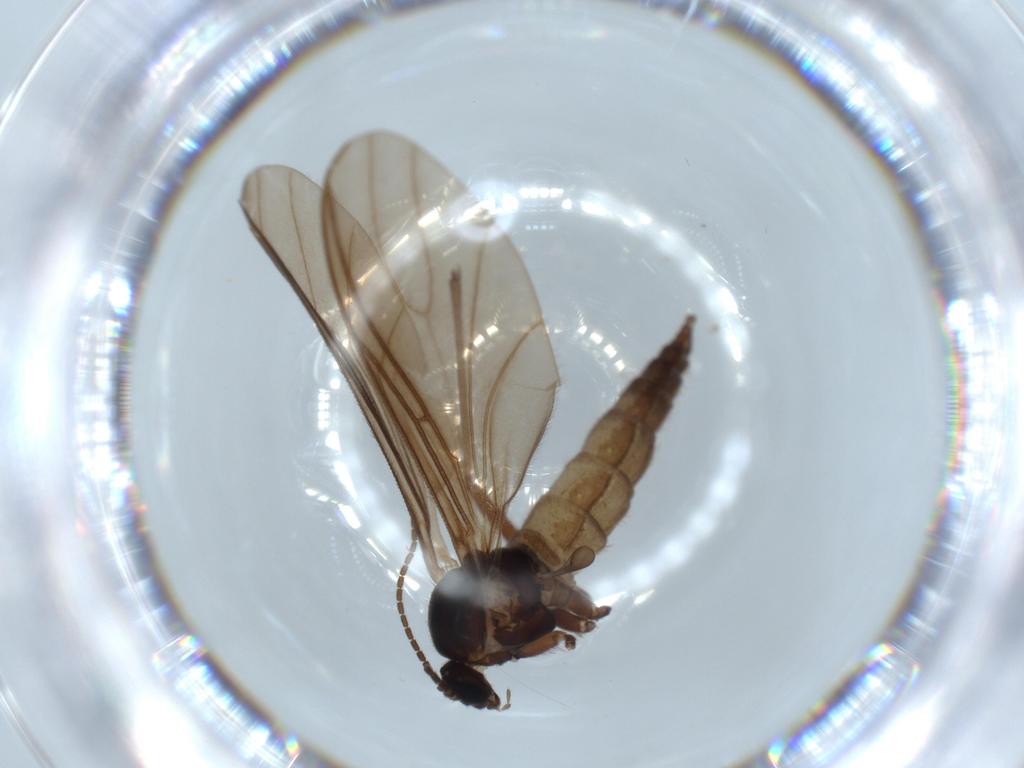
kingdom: Animalia
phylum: Arthropoda
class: Insecta
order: Diptera
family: Sciaridae
